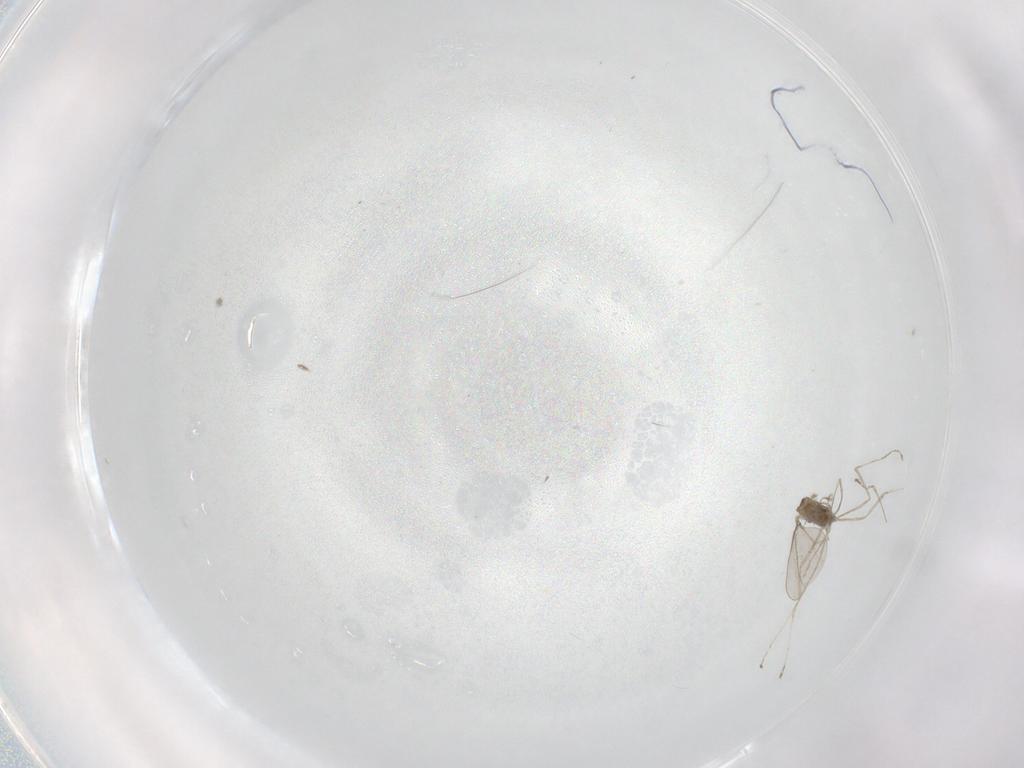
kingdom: Animalia
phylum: Arthropoda
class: Insecta
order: Diptera
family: Cecidomyiidae
